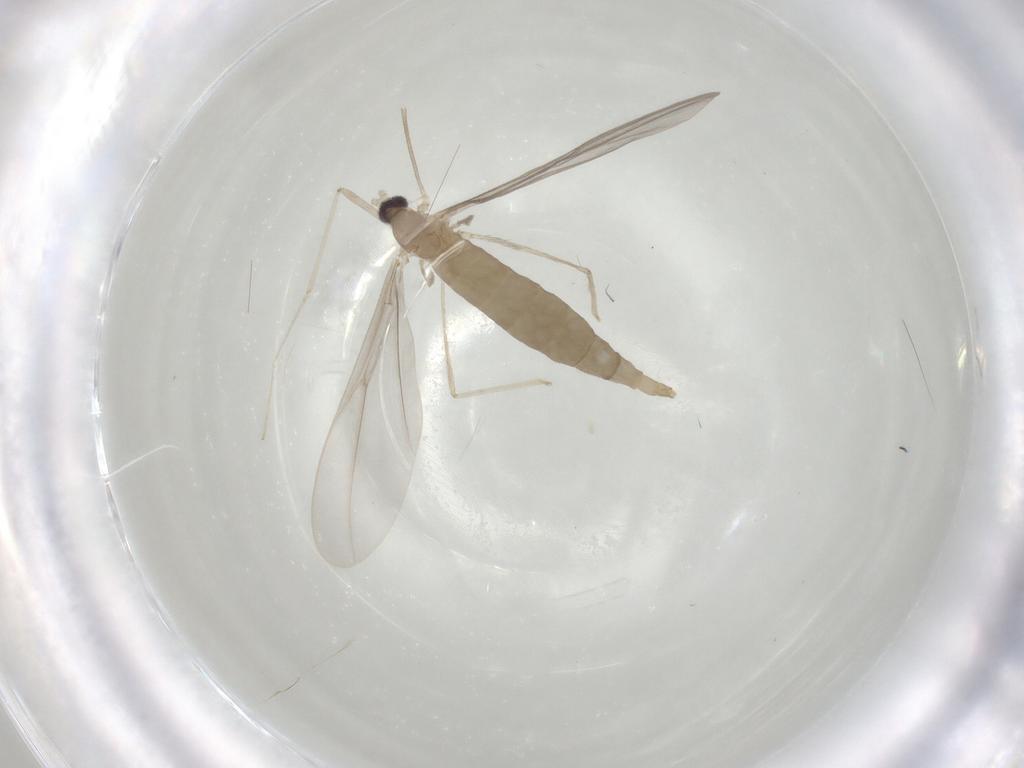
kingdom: Animalia
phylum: Arthropoda
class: Insecta
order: Diptera
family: Cecidomyiidae
